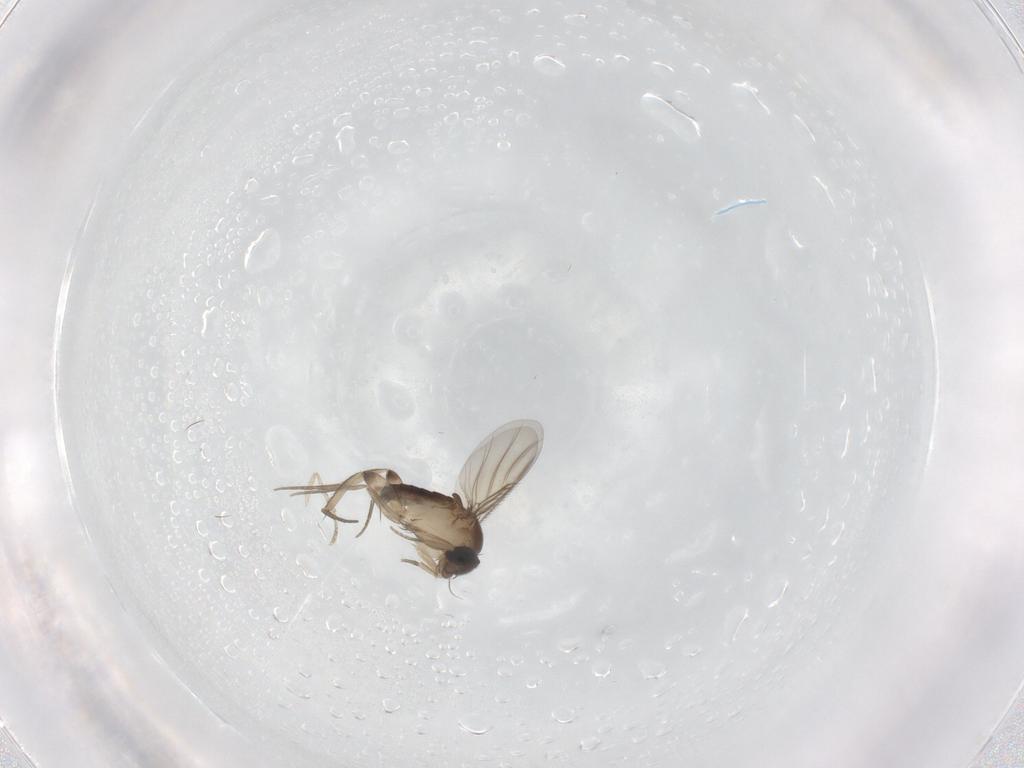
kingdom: Animalia
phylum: Arthropoda
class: Insecta
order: Diptera
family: Phoridae
